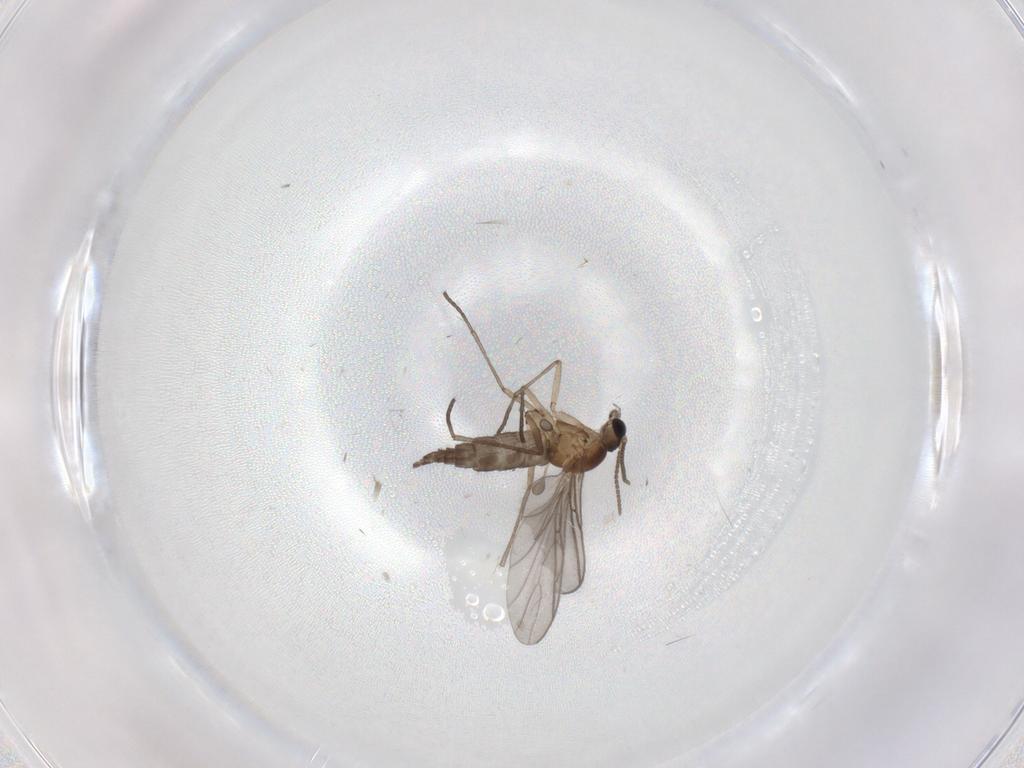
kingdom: Animalia
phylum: Arthropoda
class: Insecta
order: Diptera
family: Sciaridae
